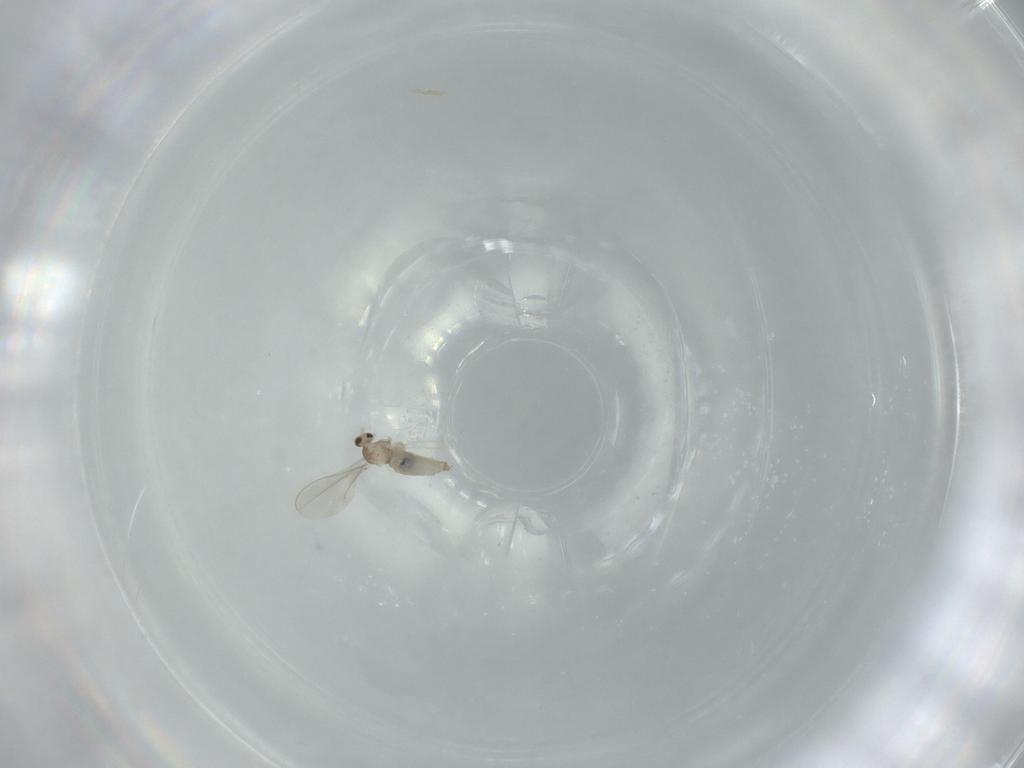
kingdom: Animalia
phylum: Arthropoda
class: Insecta
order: Diptera
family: Cecidomyiidae
